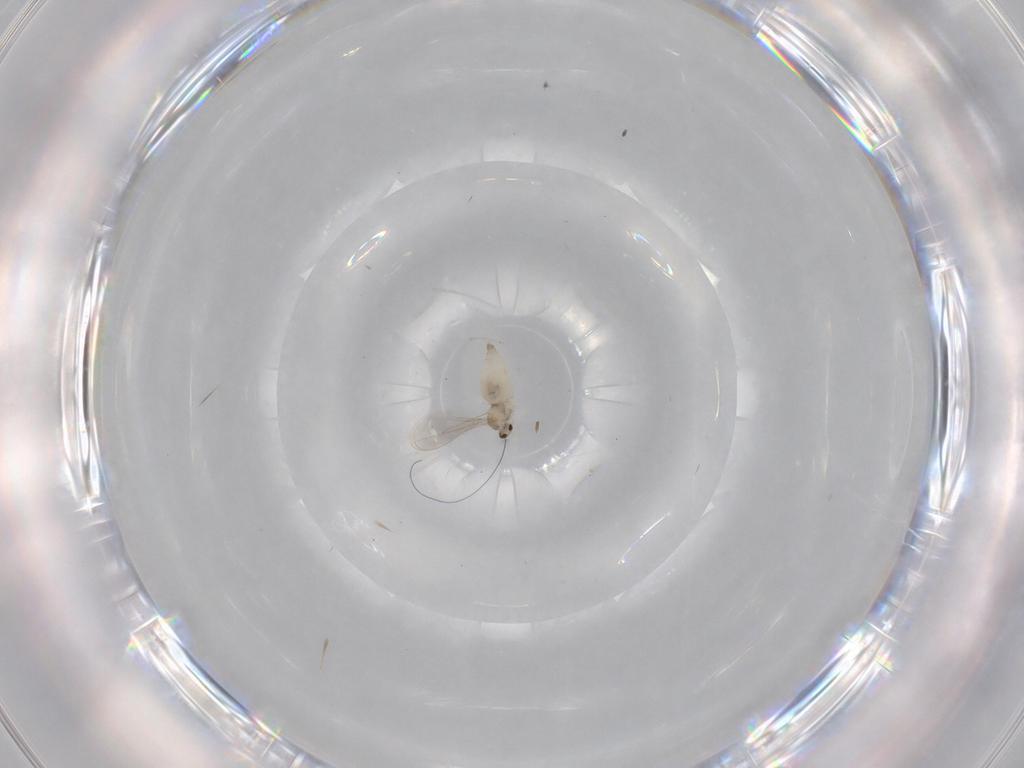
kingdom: Animalia
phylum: Arthropoda
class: Insecta
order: Diptera
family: Cecidomyiidae
